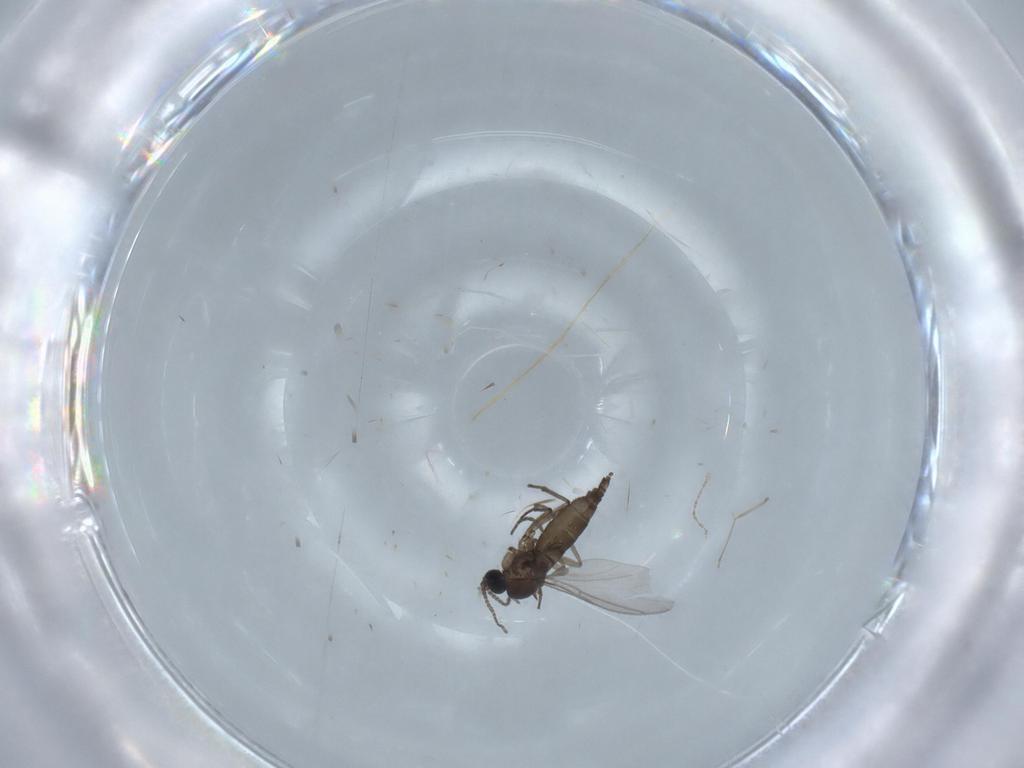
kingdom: Animalia
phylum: Arthropoda
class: Insecta
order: Diptera
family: Cecidomyiidae
